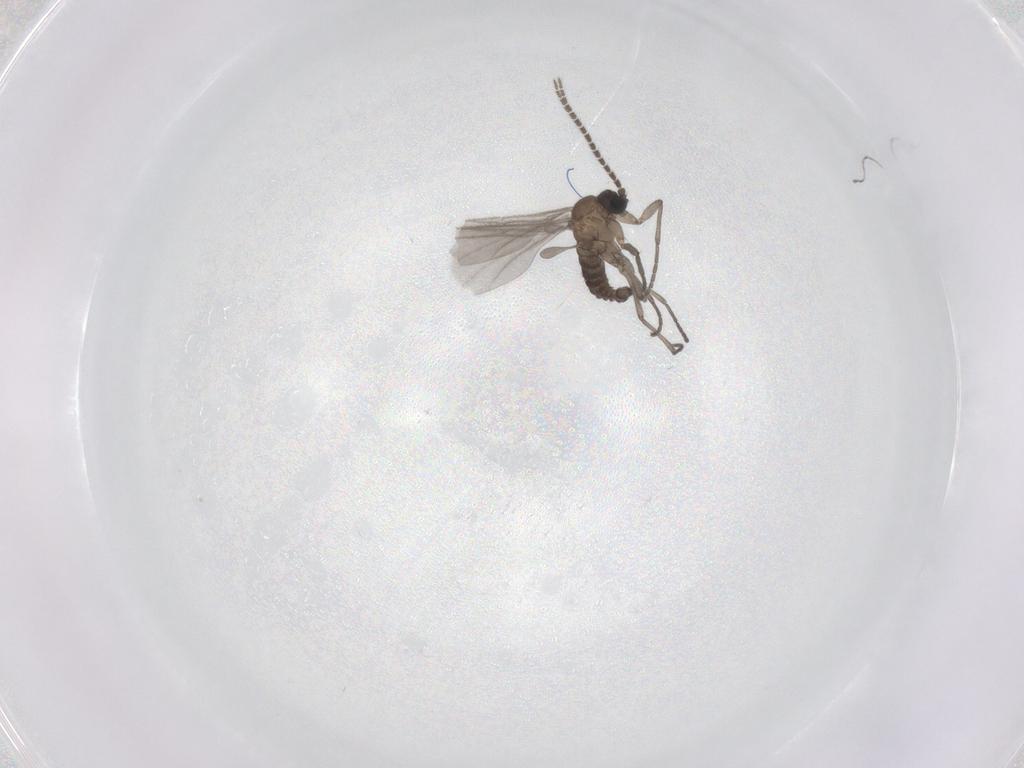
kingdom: Animalia
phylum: Arthropoda
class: Insecta
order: Diptera
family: Sciaridae
